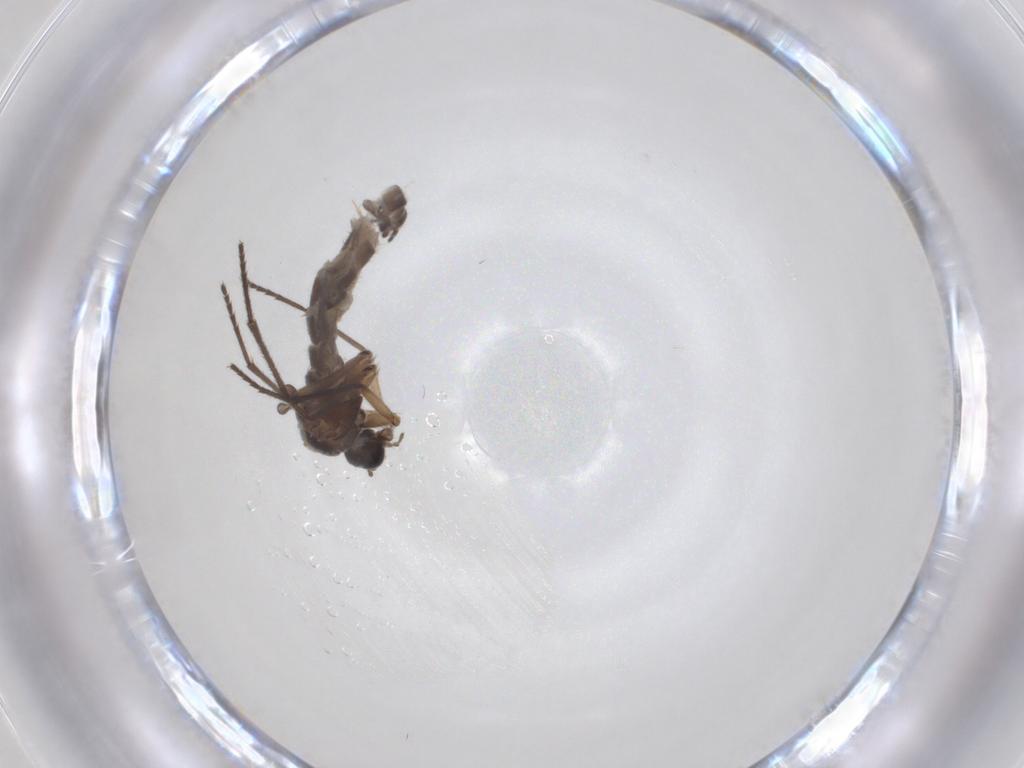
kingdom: Animalia
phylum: Arthropoda
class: Insecta
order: Diptera
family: Sciaridae
